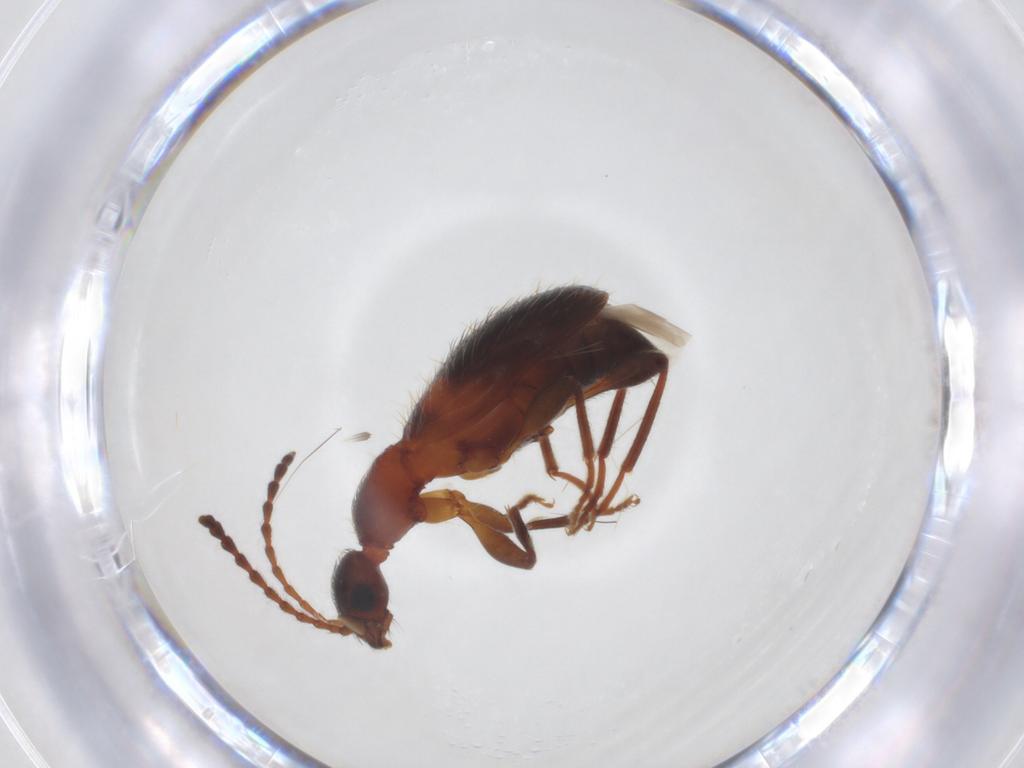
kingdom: Animalia
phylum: Arthropoda
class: Insecta
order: Coleoptera
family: Anthicidae
